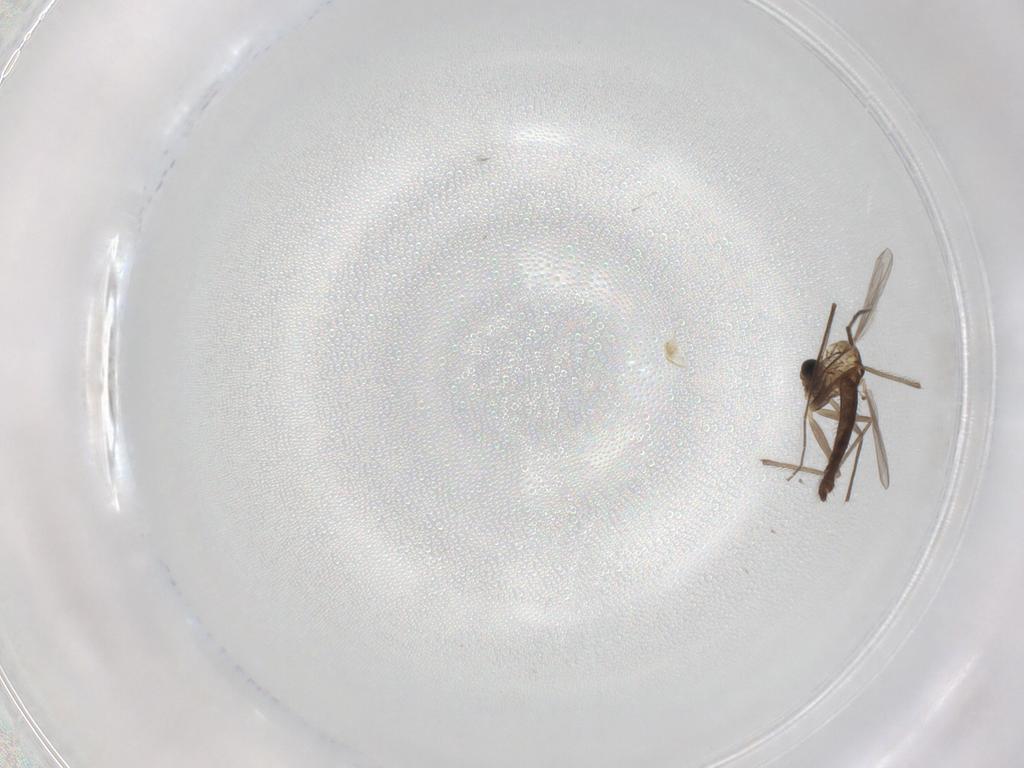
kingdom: Animalia
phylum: Arthropoda
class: Insecta
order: Diptera
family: Chironomidae
